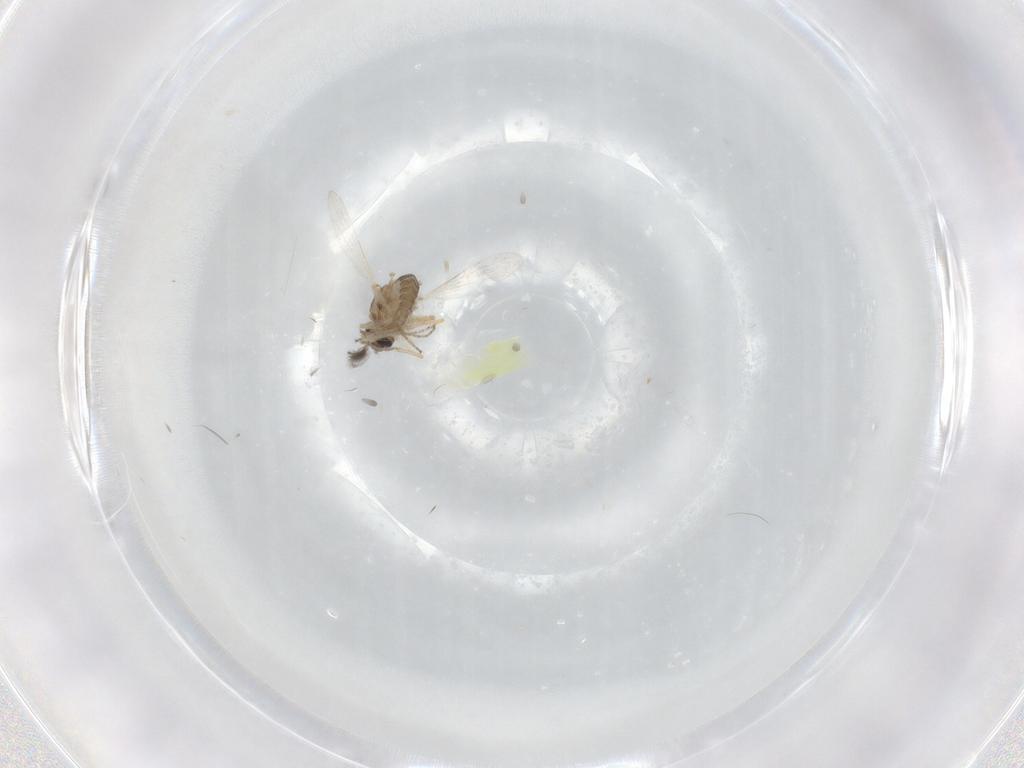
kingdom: Animalia
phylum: Arthropoda
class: Insecta
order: Diptera
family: Ceratopogonidae
